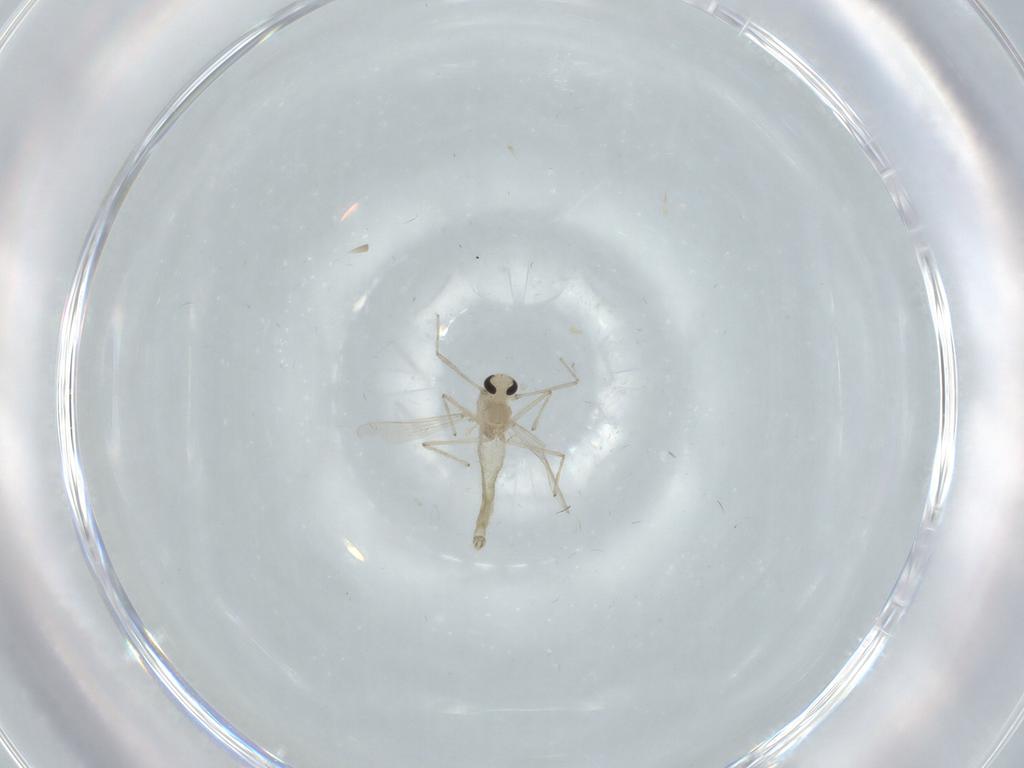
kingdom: Animalia
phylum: Arthropoda
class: Insecta
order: Diptera
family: Chironomidae
